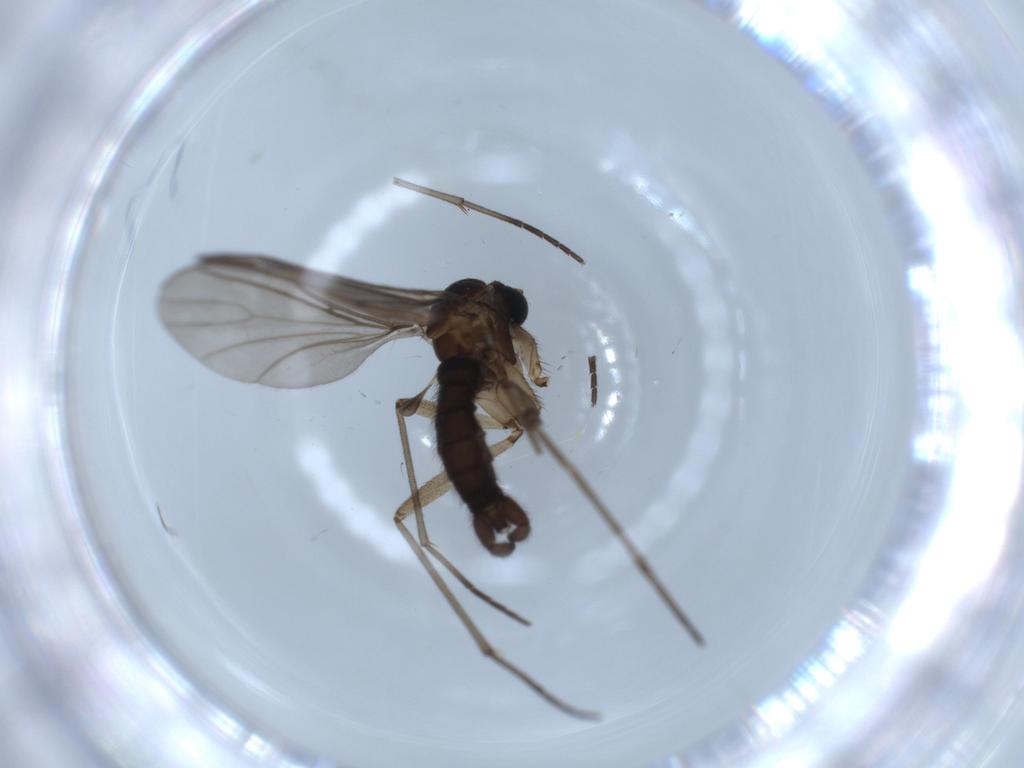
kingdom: Animalia
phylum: Arthropoda
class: Insecta
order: Diptera
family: Sciaridae
